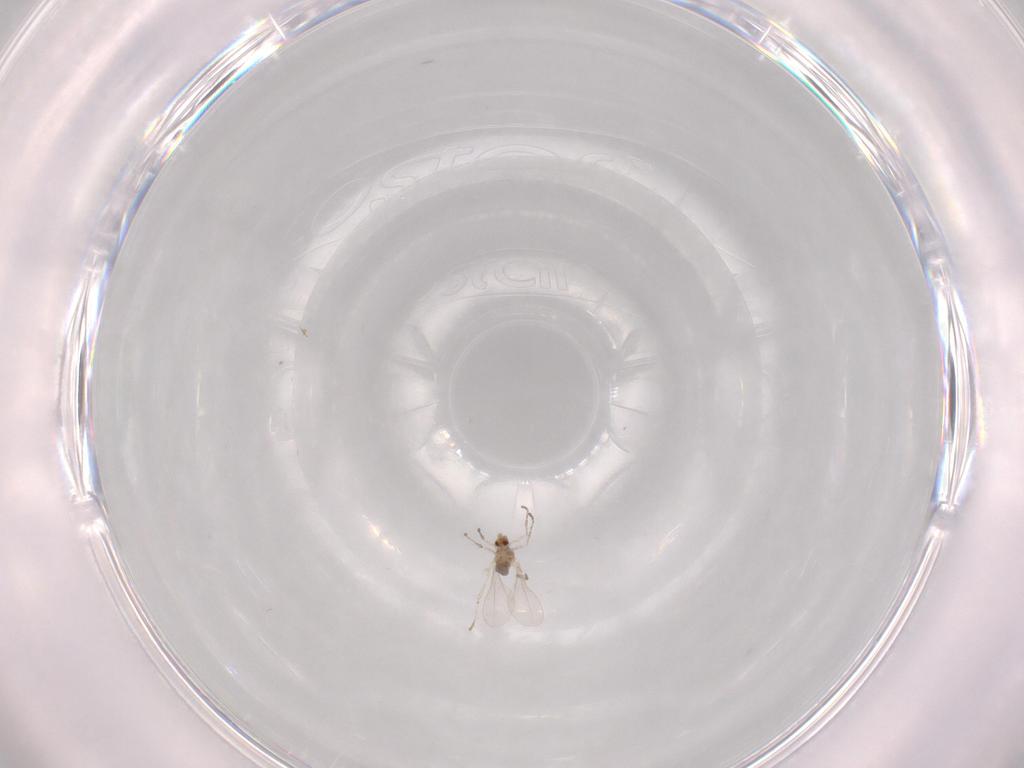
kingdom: Animalia
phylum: Arthropoda
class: Insecta
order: Diptera
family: Cecidomyiidae
